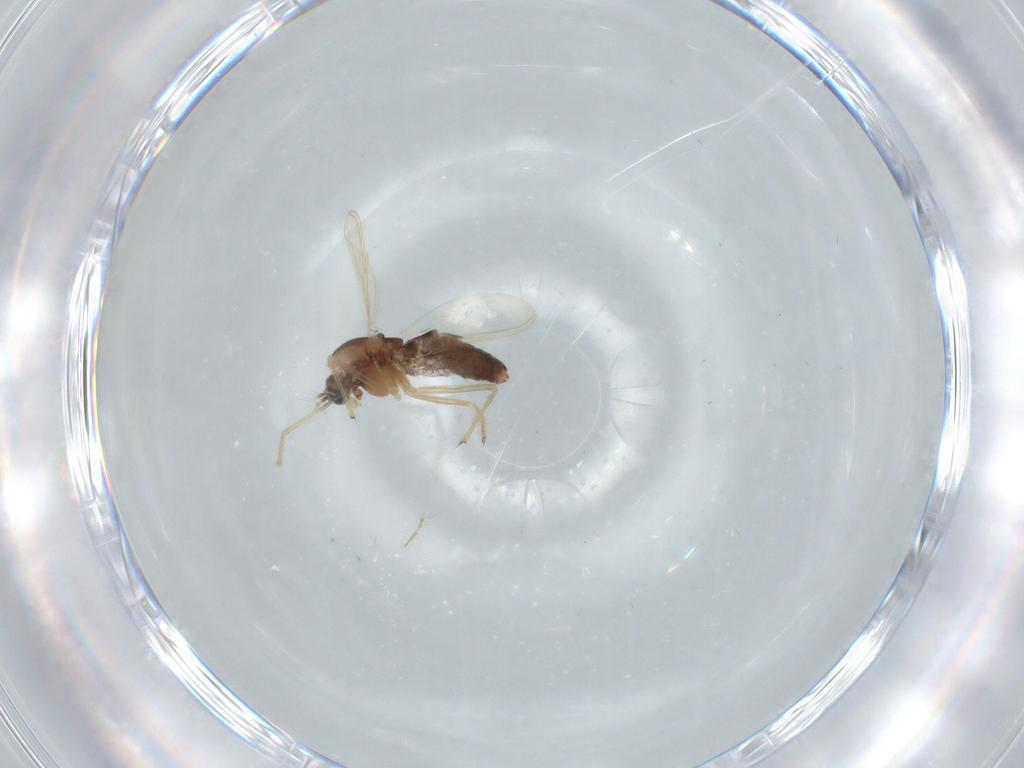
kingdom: Animalia
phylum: Arthropoda
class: Insecta
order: Diptera
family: Chironomidae
